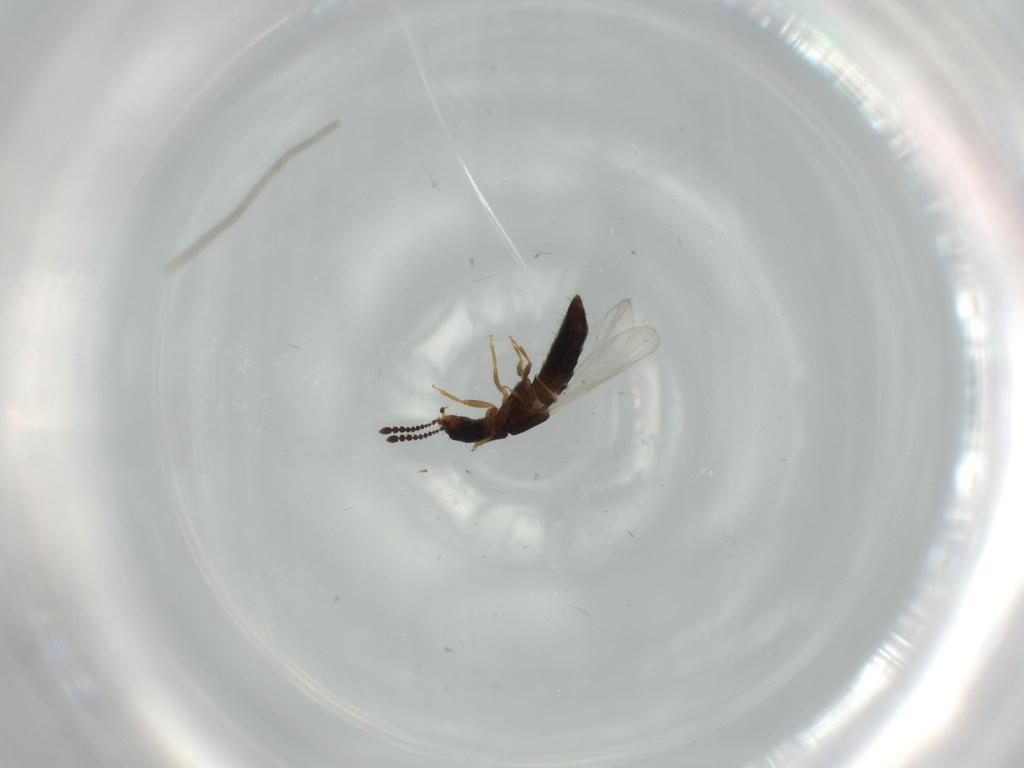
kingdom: Animalia
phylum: Arthropoda
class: Insecta
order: Coleoptera
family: Staphylinidae
